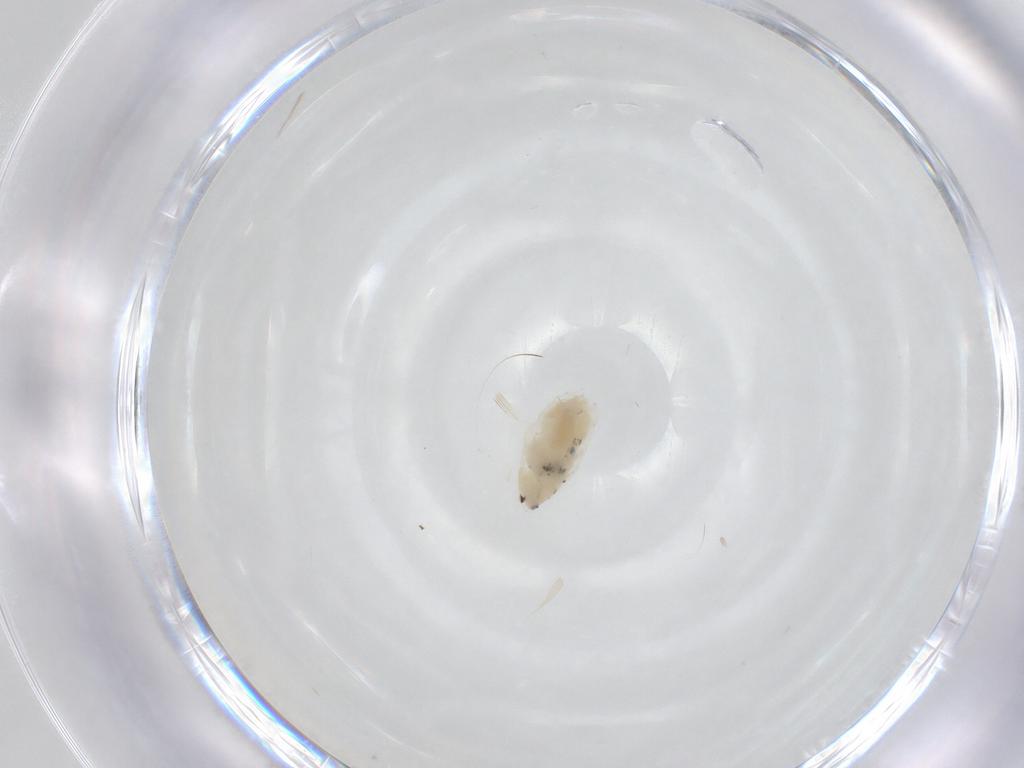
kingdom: Animalia
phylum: Arthropoda
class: Insecta
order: Psocodea
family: Lepidopsocidae
